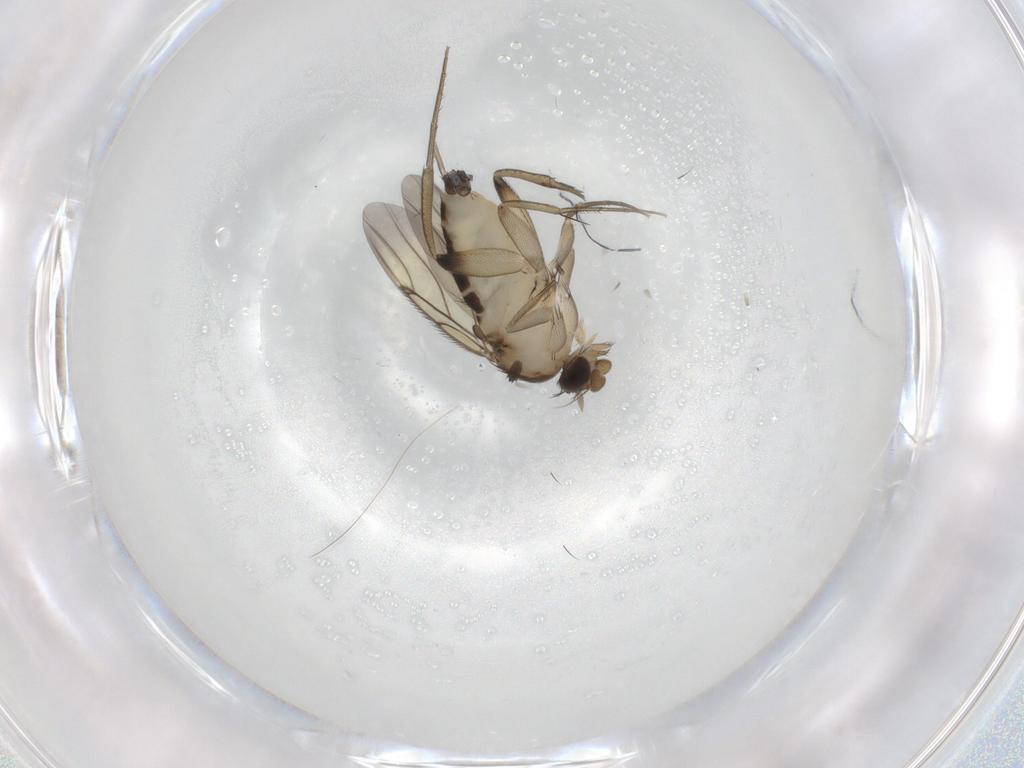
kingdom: Animalia
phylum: Arthropoda
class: Insecta
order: Diptera
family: Phoridae
